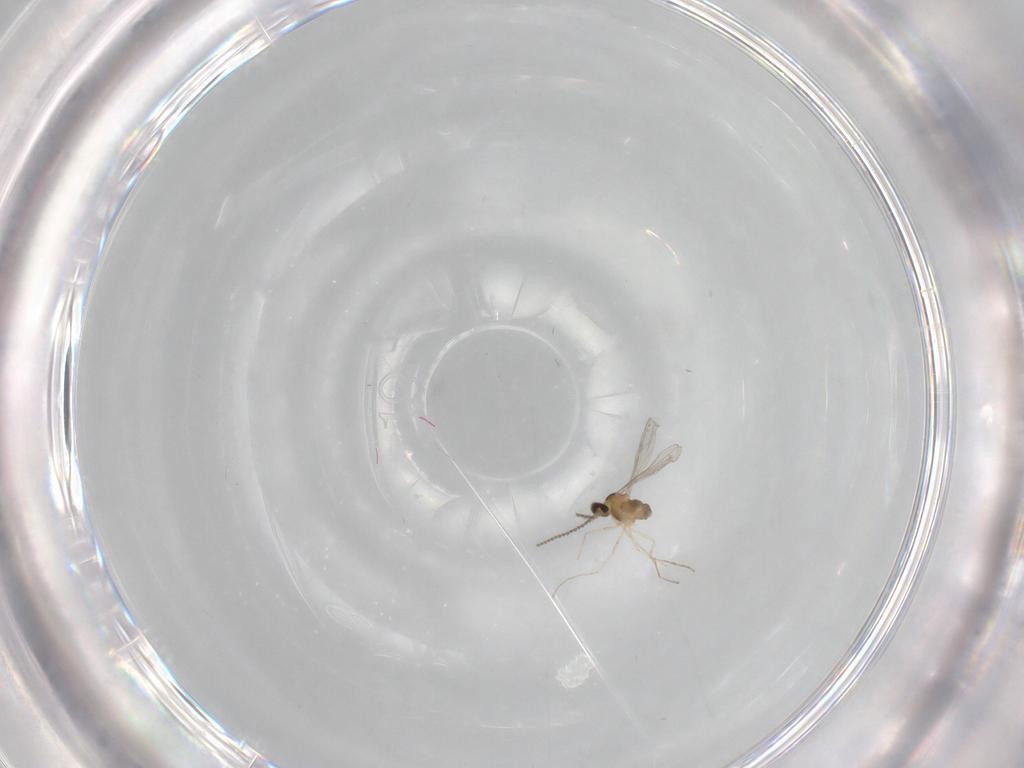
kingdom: Animalia
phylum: Arthropoda
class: Insecta
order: Diptera
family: Cecidomyiidae
